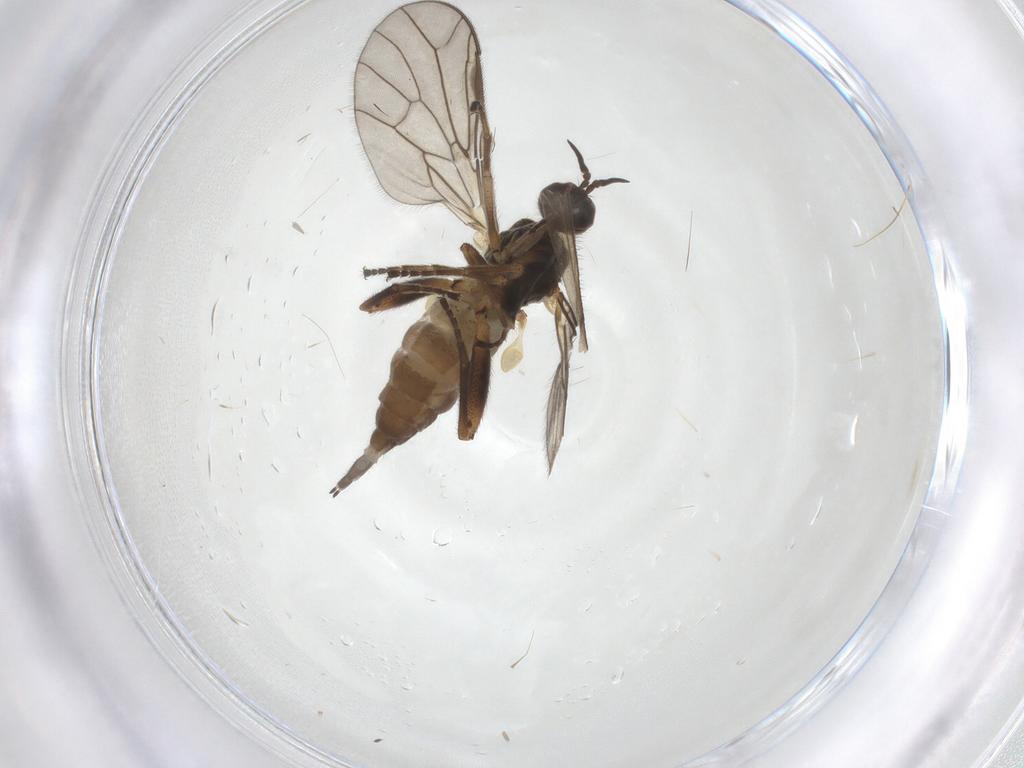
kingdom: Animalia
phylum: Arthropoda
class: Insecta
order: Diptera
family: Empididae
